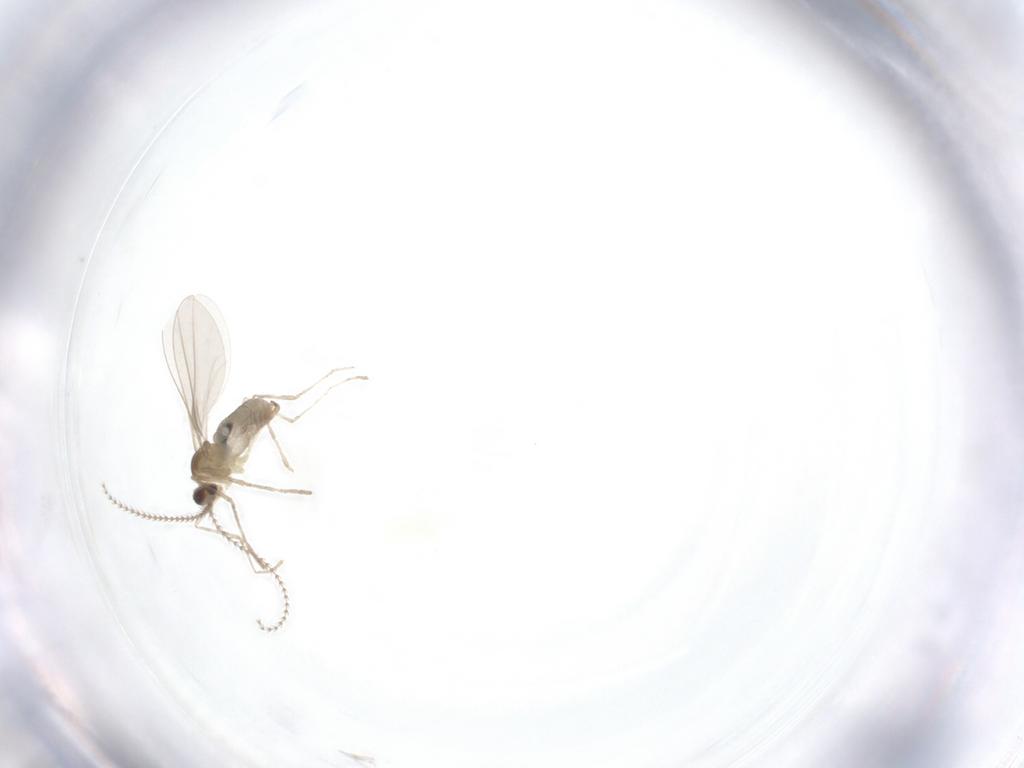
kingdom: Animalia
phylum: Arthropoda
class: Insecta
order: Diptera
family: Cecidomyiidae
